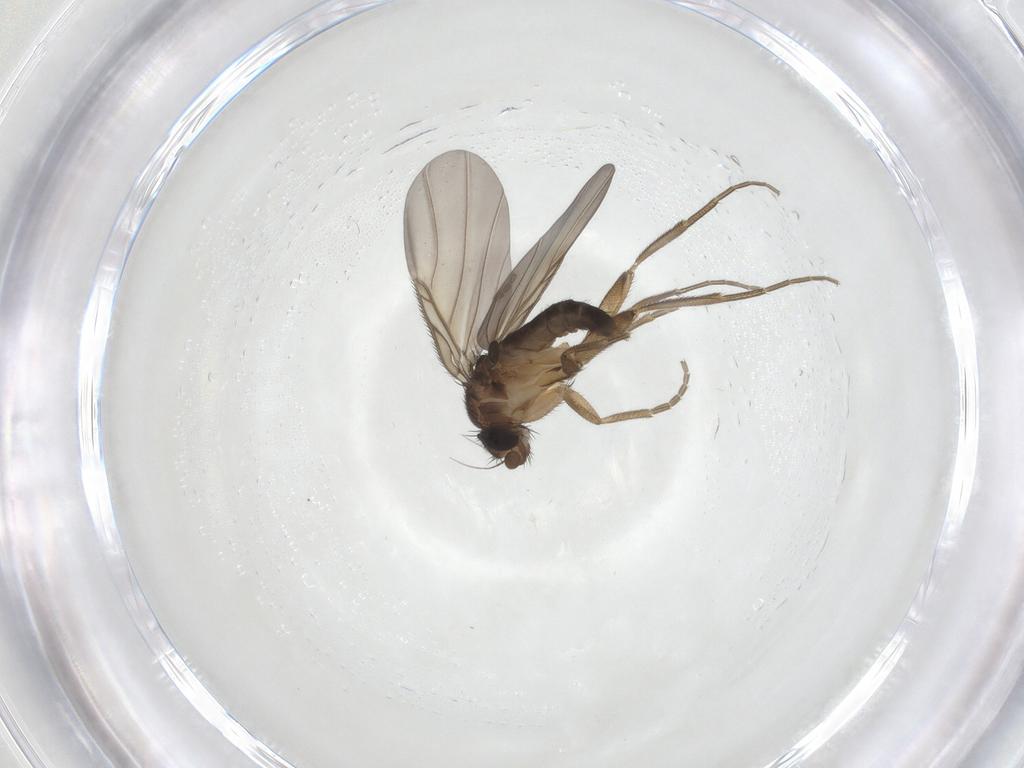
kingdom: Animalia
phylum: Arthropoda
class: Insecta
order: Diptera
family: Phoridae
